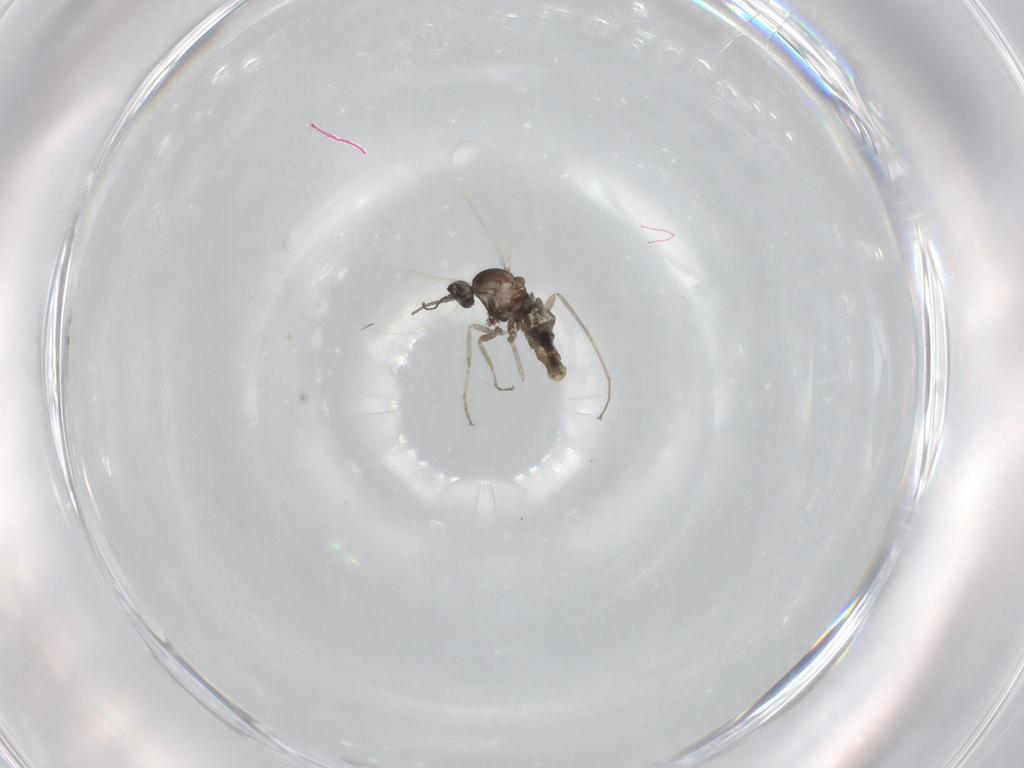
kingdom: Animalia
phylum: Arthropoda
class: Insecta
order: Diptera
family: Cecidomyiidae
